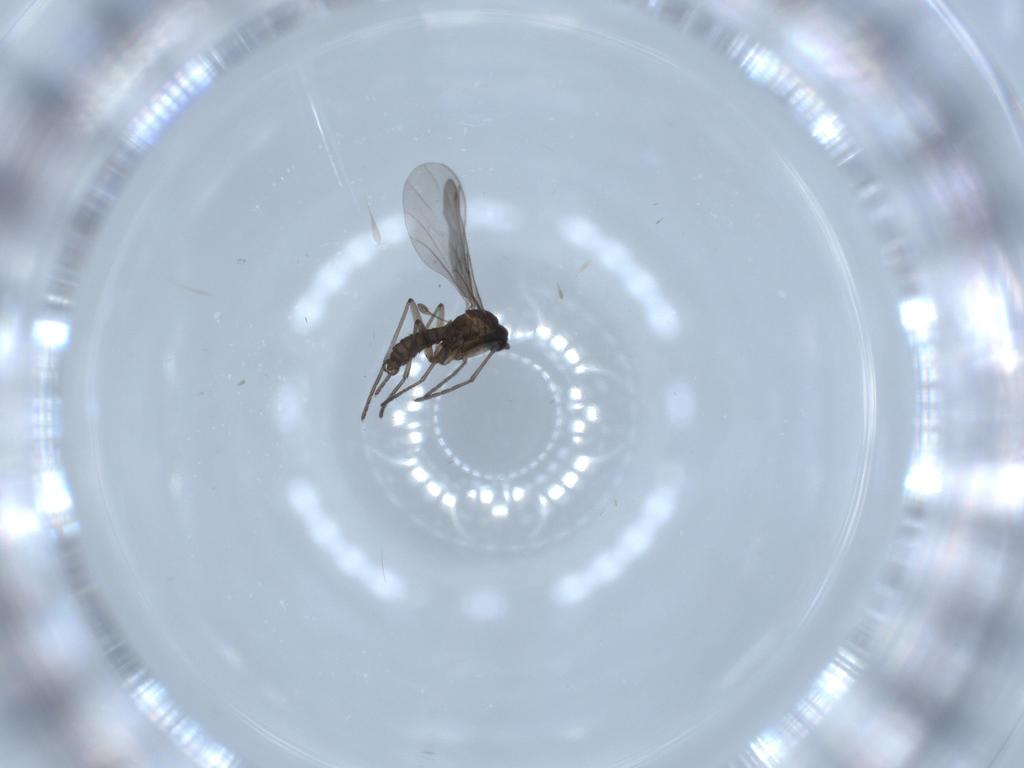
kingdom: Animalia
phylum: Arthropoda
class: Insecta
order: Diptera
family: Sciaridae
